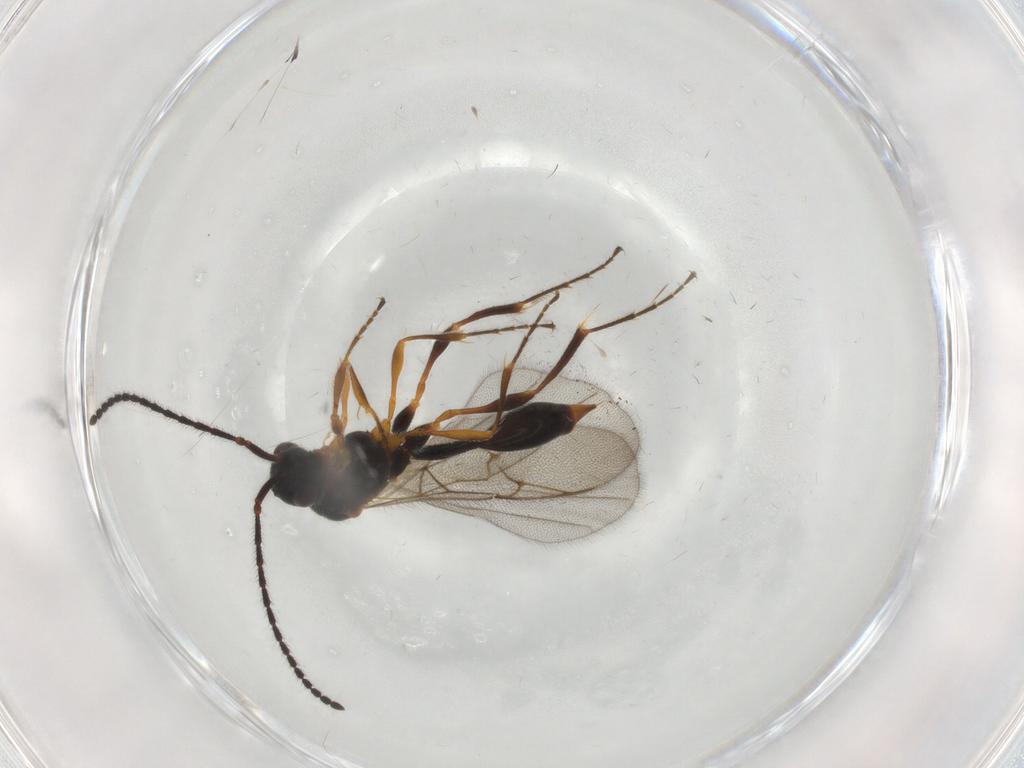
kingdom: Animalia
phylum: Arthropoda
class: Insecta
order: Hymenoptera
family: Diapriidae
